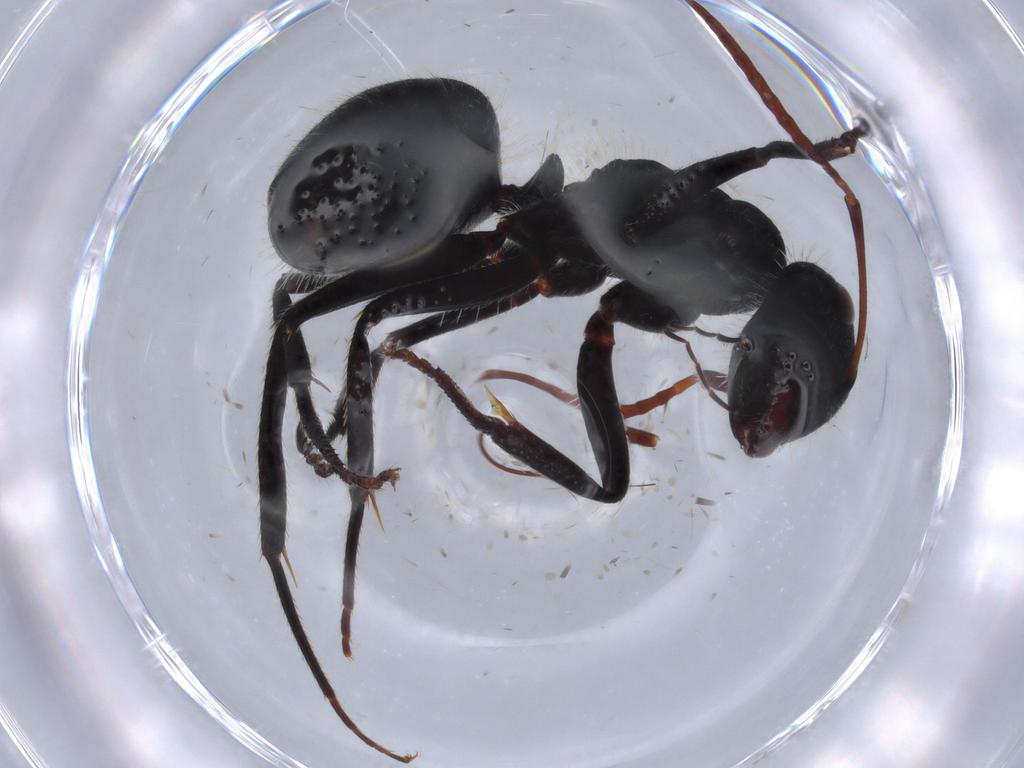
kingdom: Animalia
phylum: Arthropoda
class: Insecta
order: Hymenoptera
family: Formicidae
